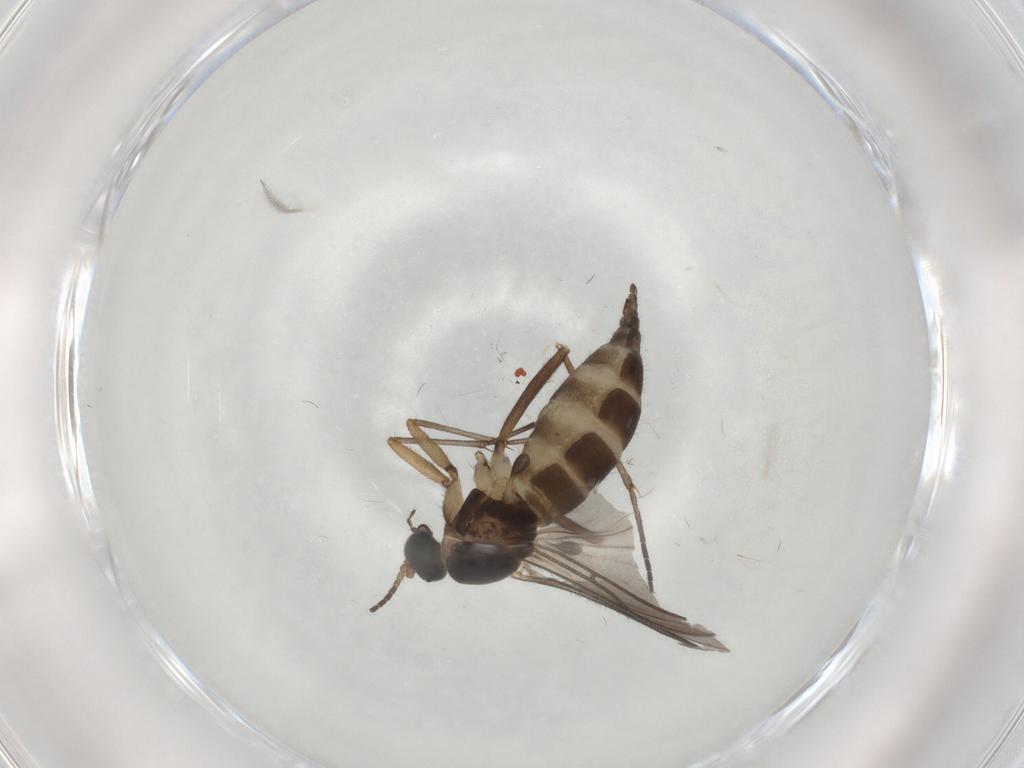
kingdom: Animalia
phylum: Arthropoda
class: Insecta
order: Diptera
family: Sciaridae
